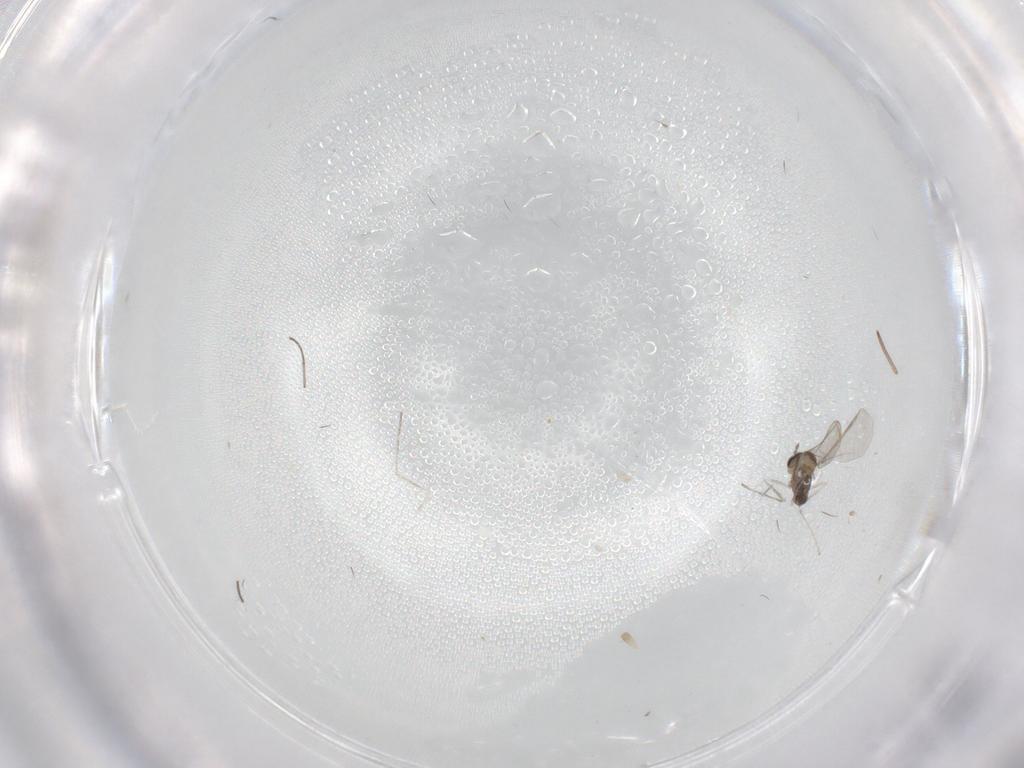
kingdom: Animalia
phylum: Arthropoda
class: Insecta
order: Diptera
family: Cecidomyiidae
